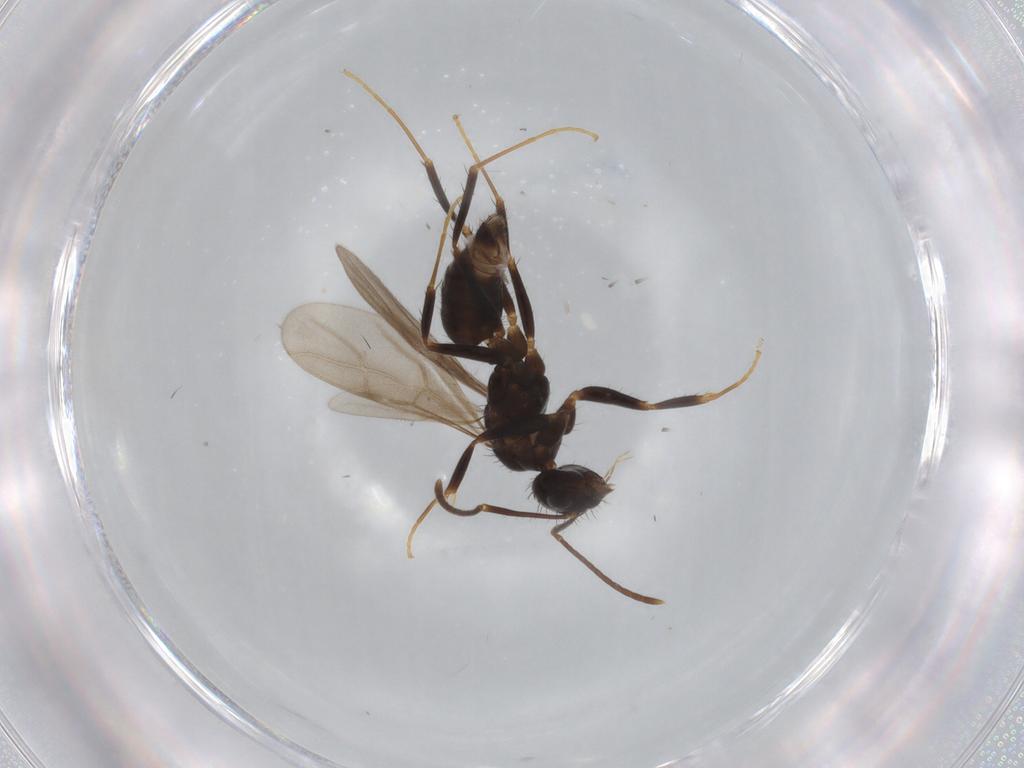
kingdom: Animalia
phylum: Arthropoda
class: Insecta
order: Hymenoptera
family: Formicidae
